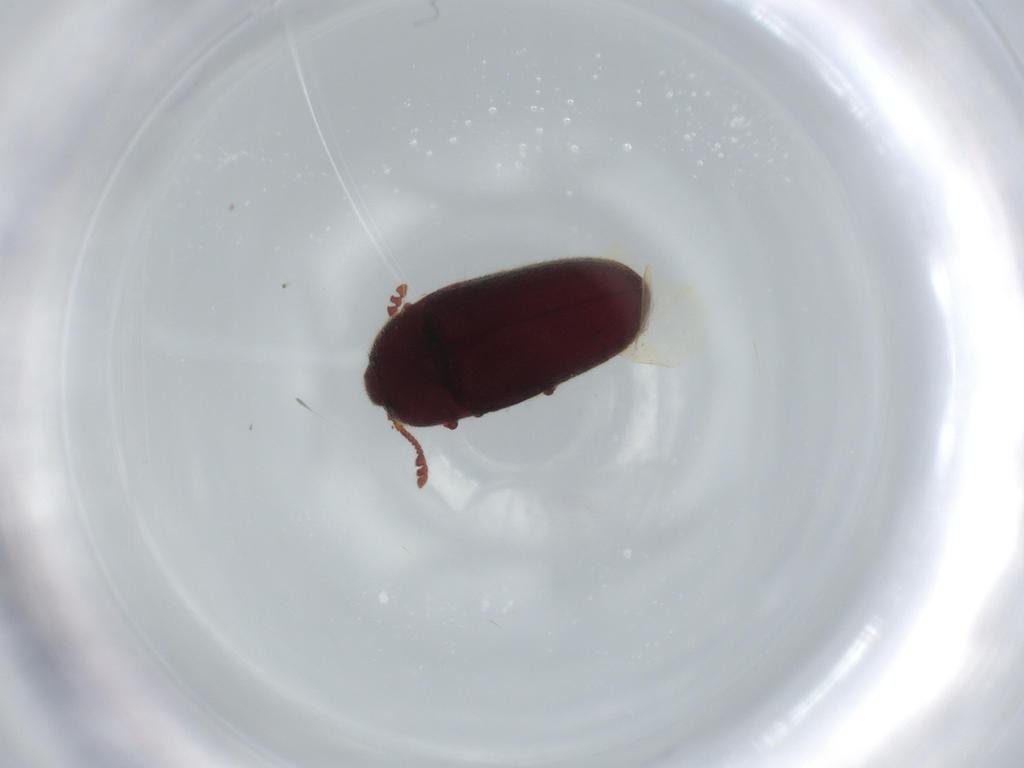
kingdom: Animalia
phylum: Arthropoda
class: Insecta
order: Coleoptera
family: Throscidae
